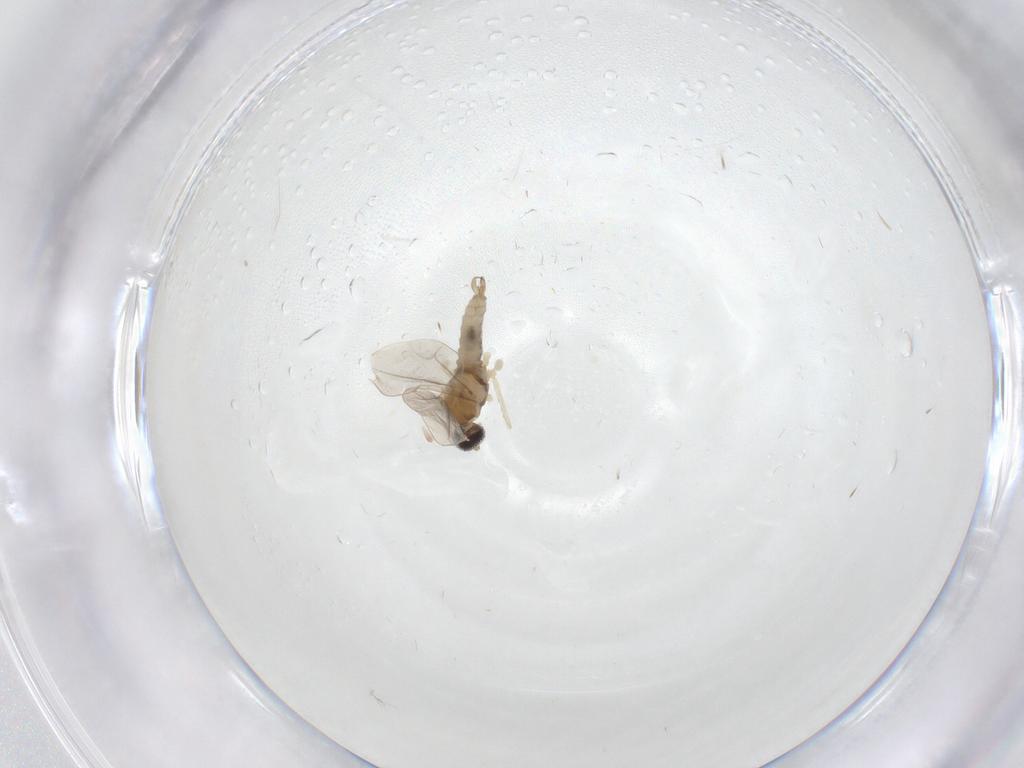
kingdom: Animalia
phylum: Arthropoda
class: Insecta
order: Diptera
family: Cecidomyiidae
